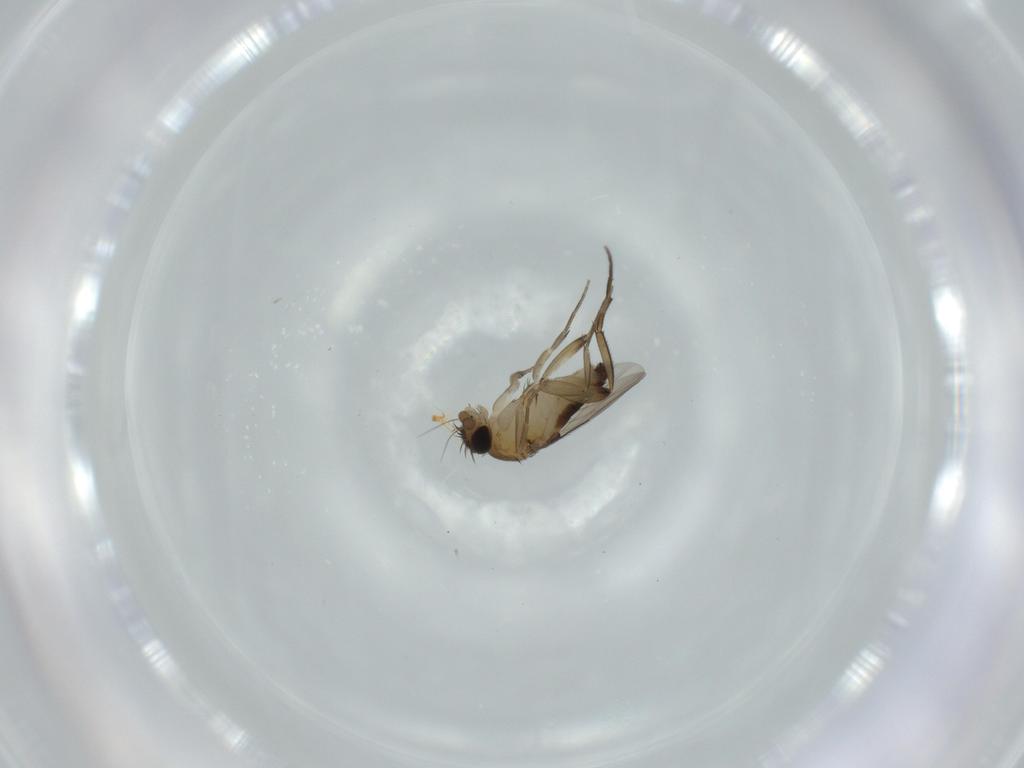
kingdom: Animalia
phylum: Arthropoda
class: Insecta
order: Diptera
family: Phoridae
